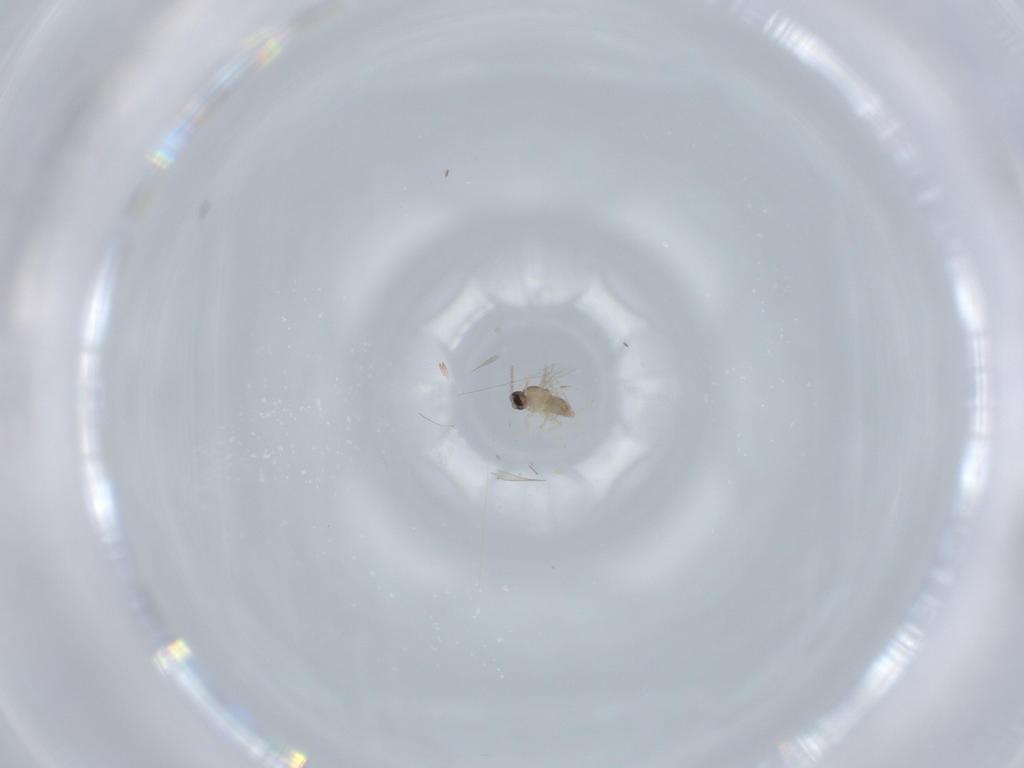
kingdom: Animalia
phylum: Arthropoda
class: Insecta
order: Diptera
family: Cecidomyiidae
